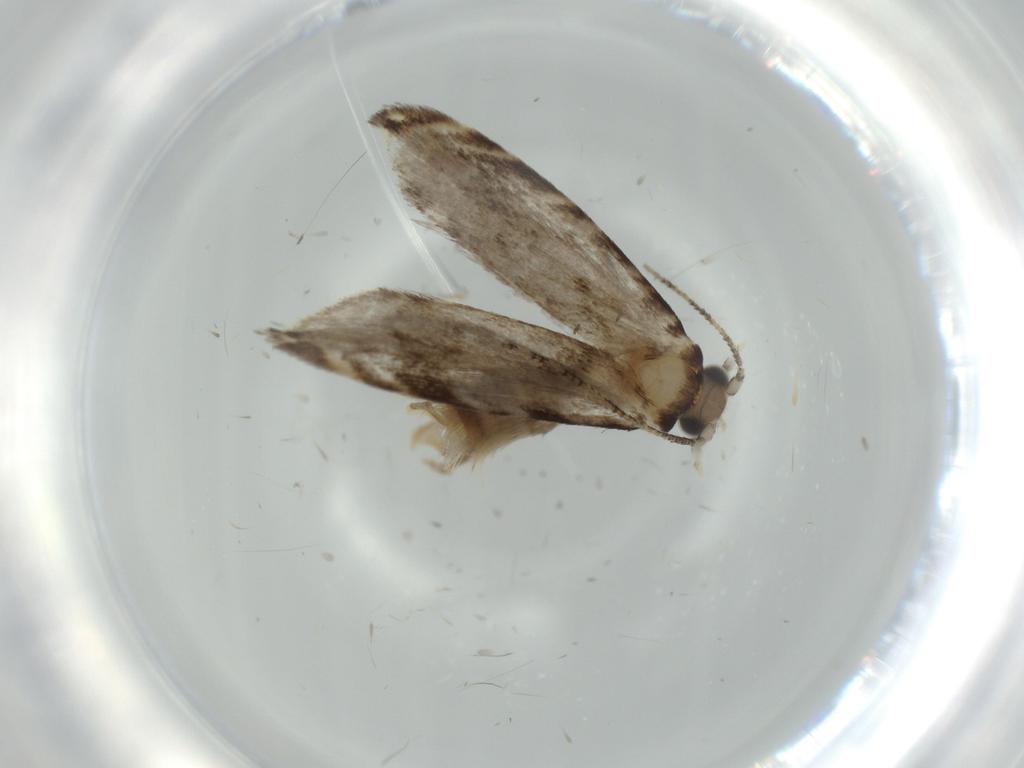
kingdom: Animalia
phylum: Arthropoda
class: Insecta
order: Lepidoptera
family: Tineidae
